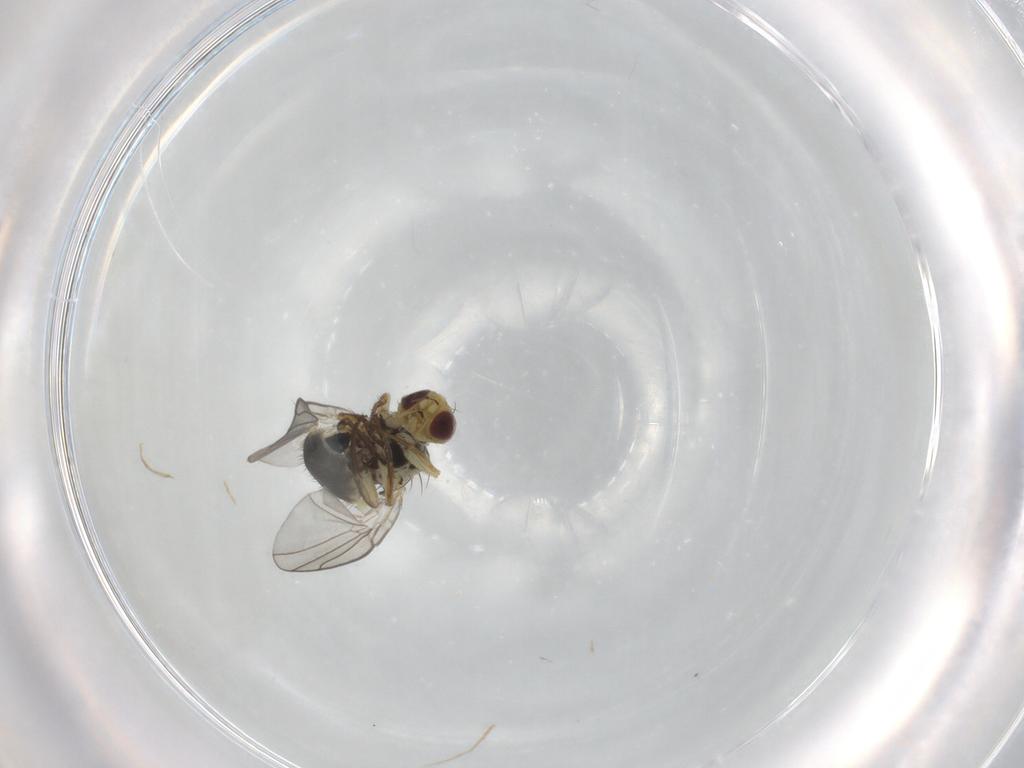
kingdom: Animalia
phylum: Arthropoda
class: Insecta
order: Diptera
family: Agromyzidae
